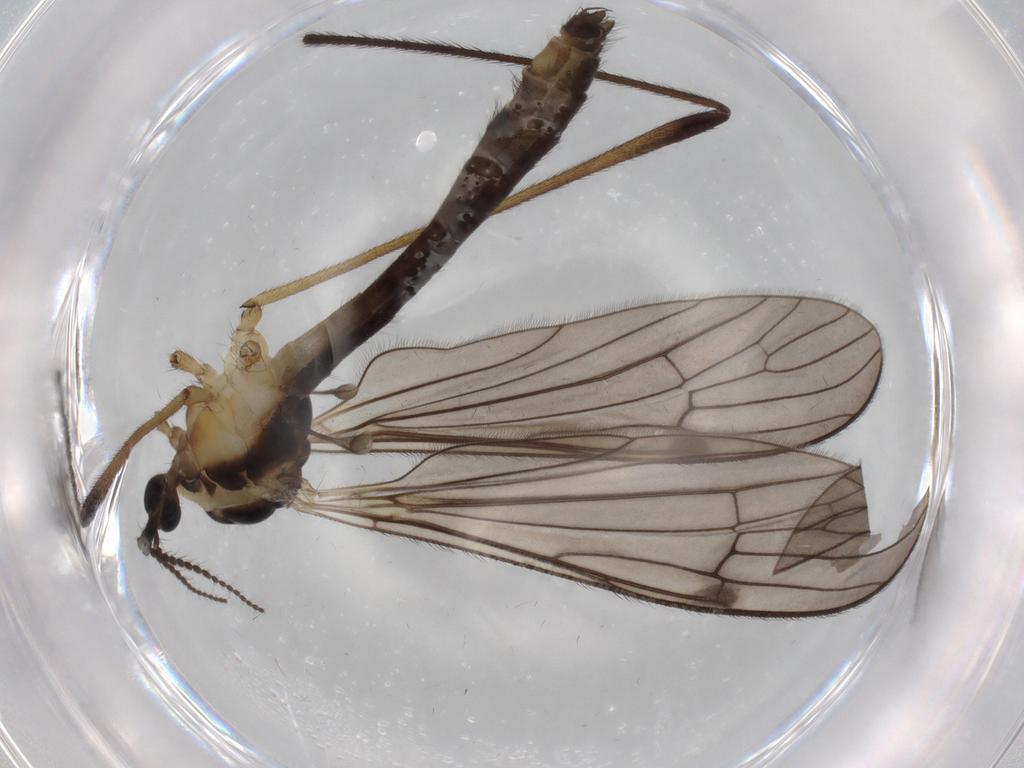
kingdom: Animalia
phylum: Arthropoda
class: Insecta
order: Diptera
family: Limoniidae
